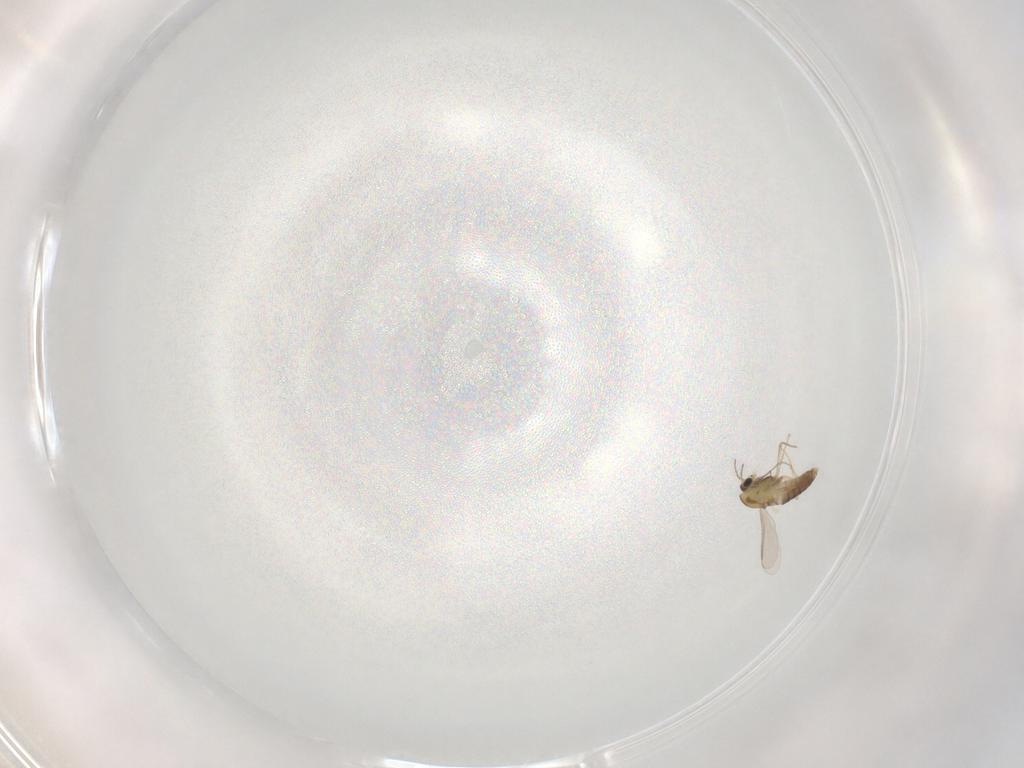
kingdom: Animalia
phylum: Arthropoda
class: Insecta
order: Diptera
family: Chironomidae
